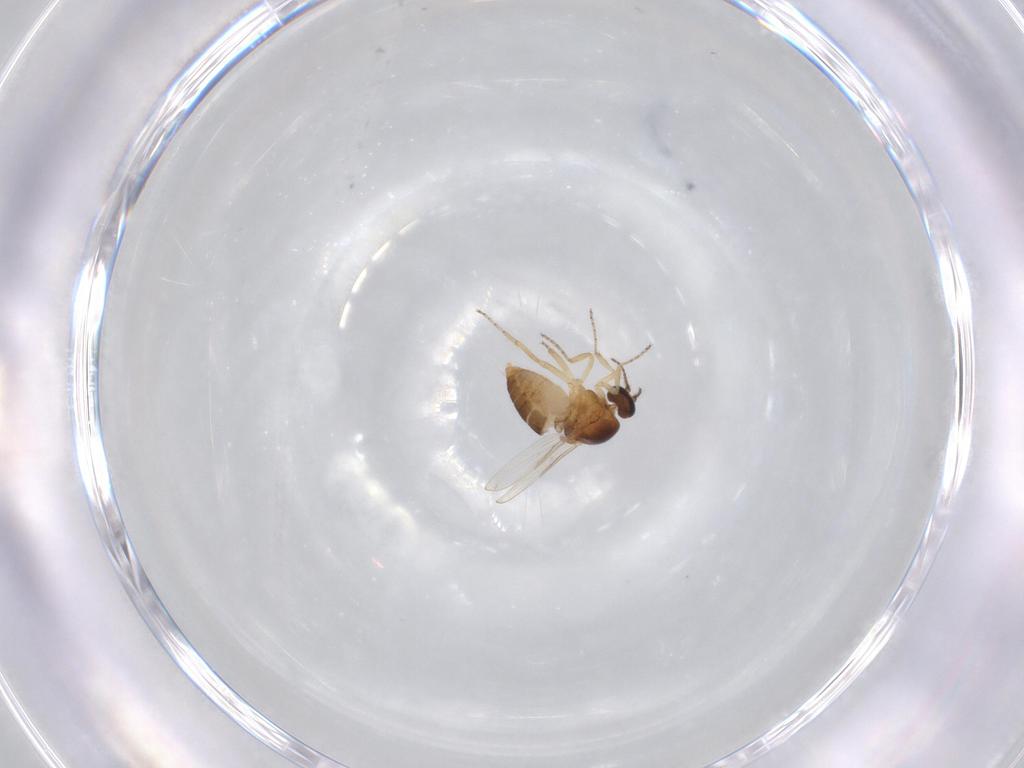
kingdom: Animalia
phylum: Arthropoda
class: Insecta
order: Diptera
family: Ceratopogonidae
